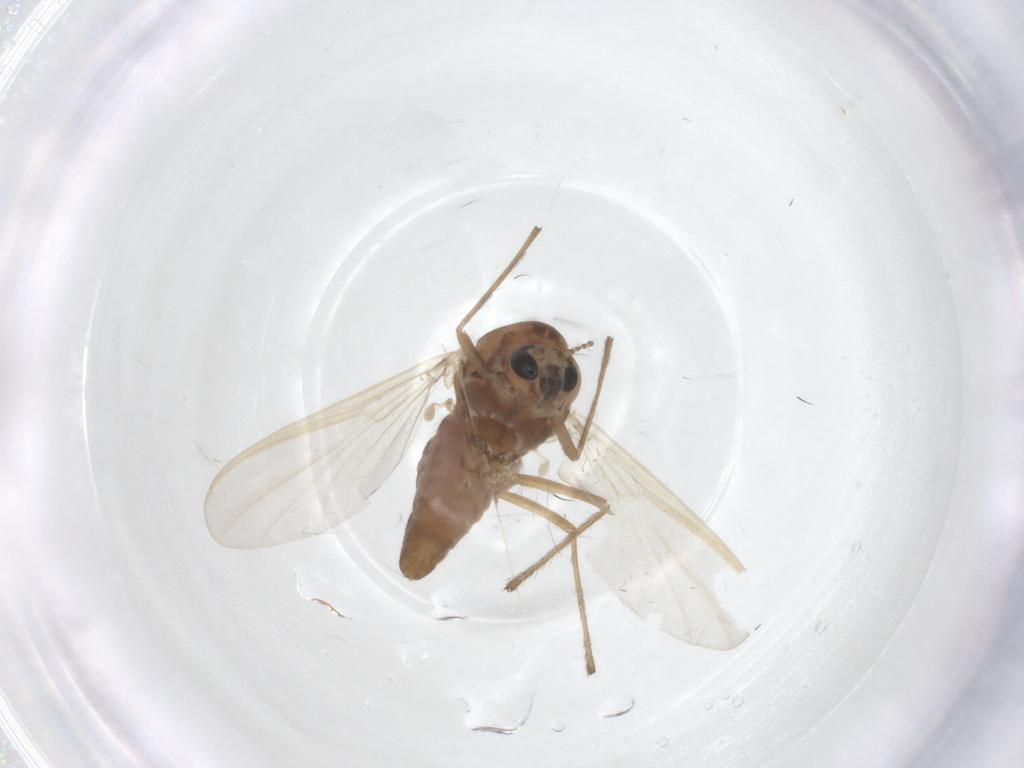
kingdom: Animalia
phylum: Arthropoda
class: Insecta
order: Diptera
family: Chironomidae
